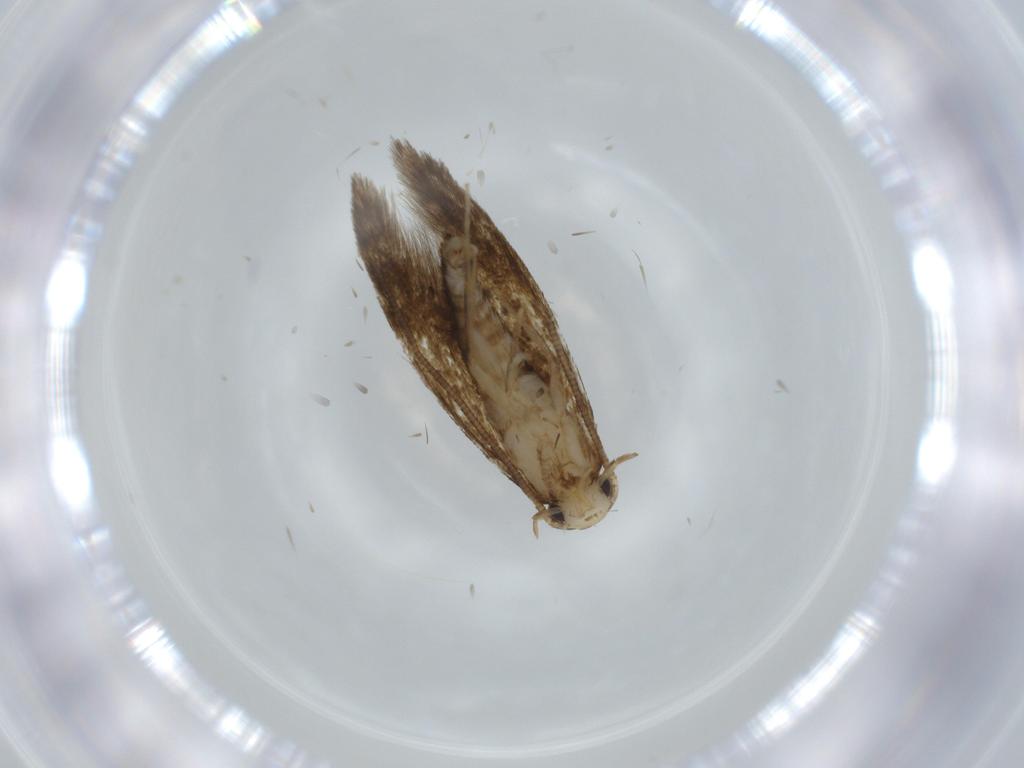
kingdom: Animalia
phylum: Arthropoda
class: Insecta
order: Lepidoptera
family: Tineidae
